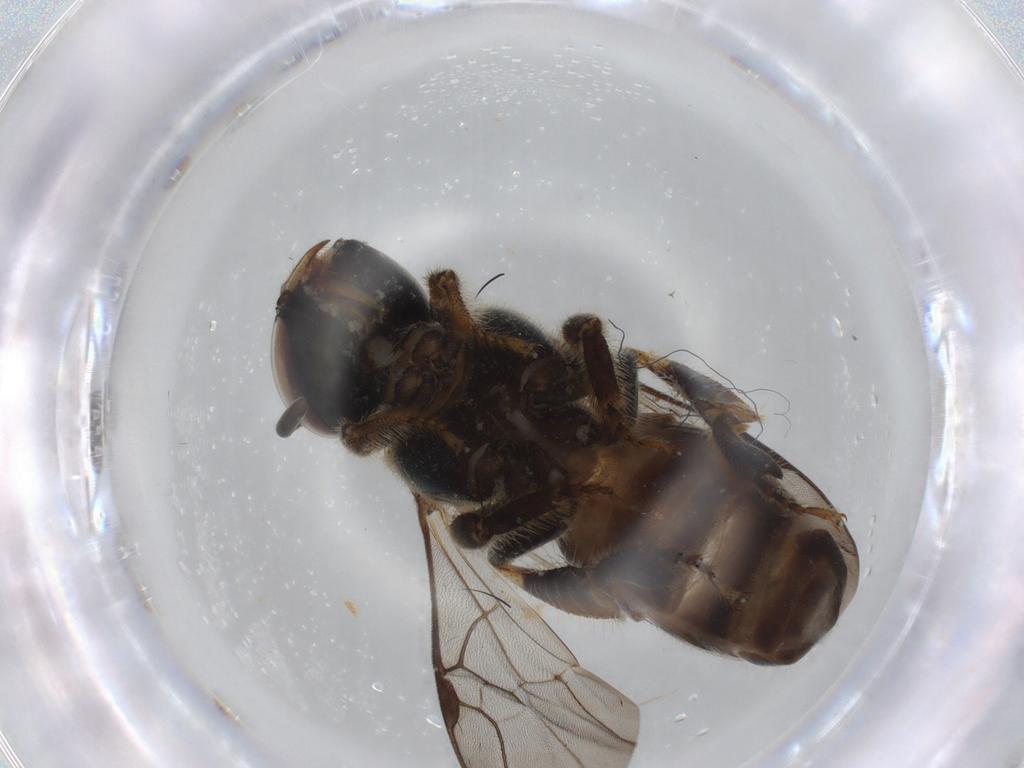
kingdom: Animalia
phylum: Arthropoda
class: Insecta
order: Hymenoptera
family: Apidae
